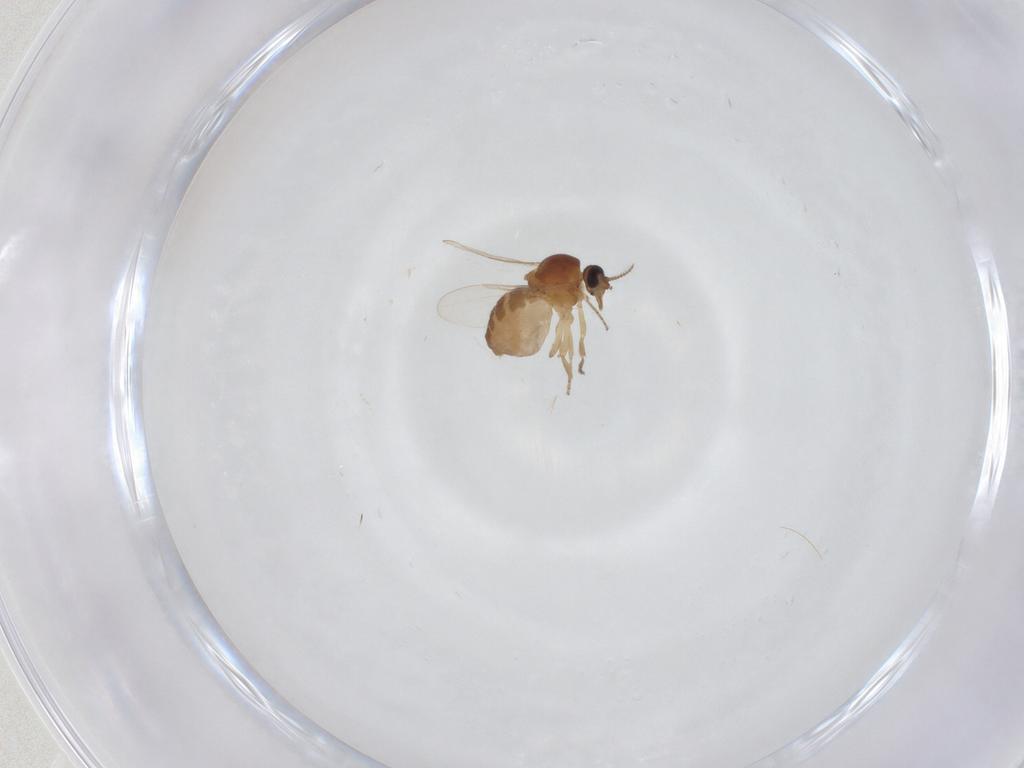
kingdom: Animalia
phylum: Arthropoda
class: Insecta
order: Diptera
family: Ceratopogonidae
